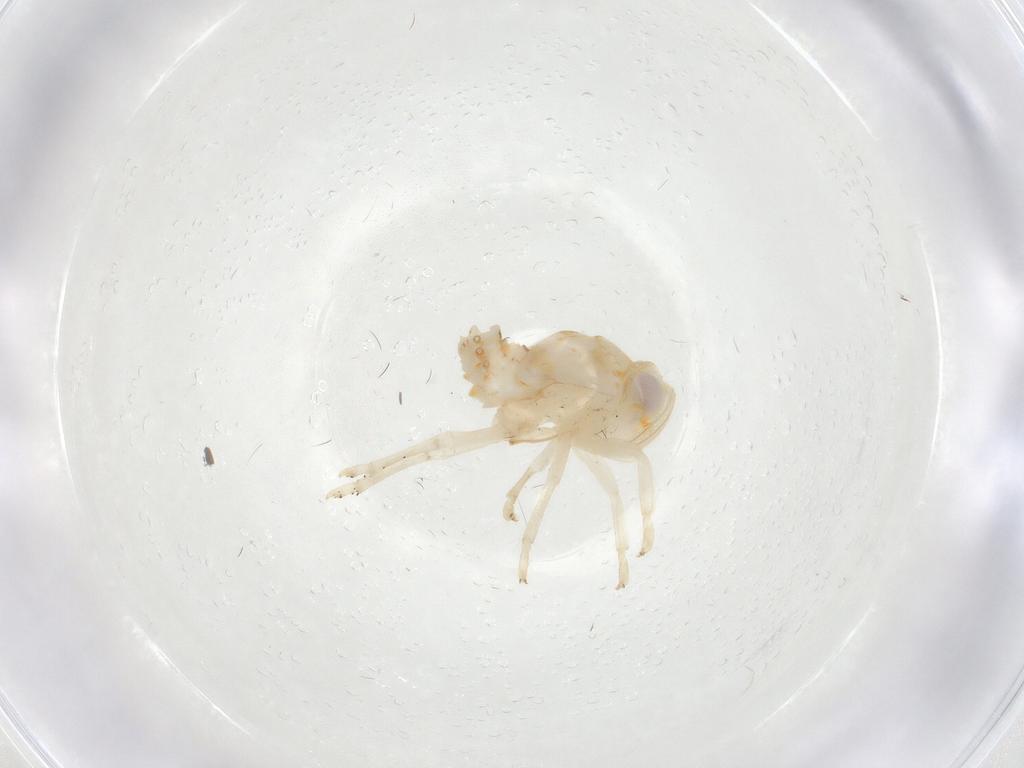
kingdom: Animalia
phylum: Arthropoda
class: Insecta
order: Hemiptera
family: Nogodinidae
